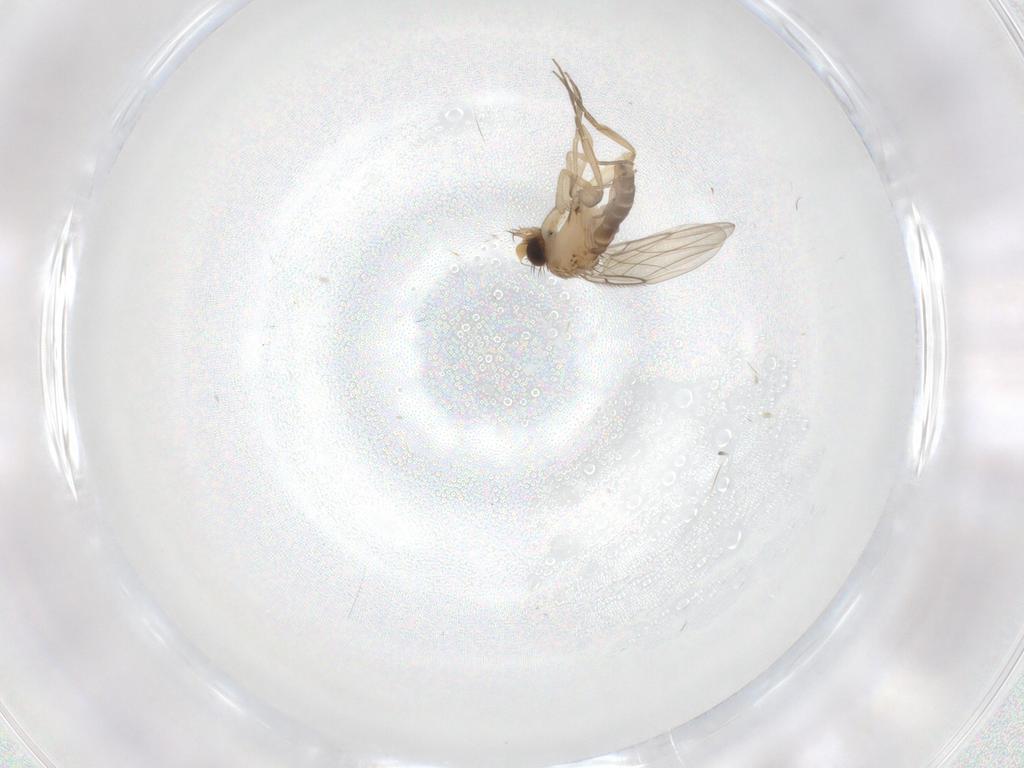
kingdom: Animalia
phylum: Arthropoda
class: Insecta
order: Diptera
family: Phoridae
